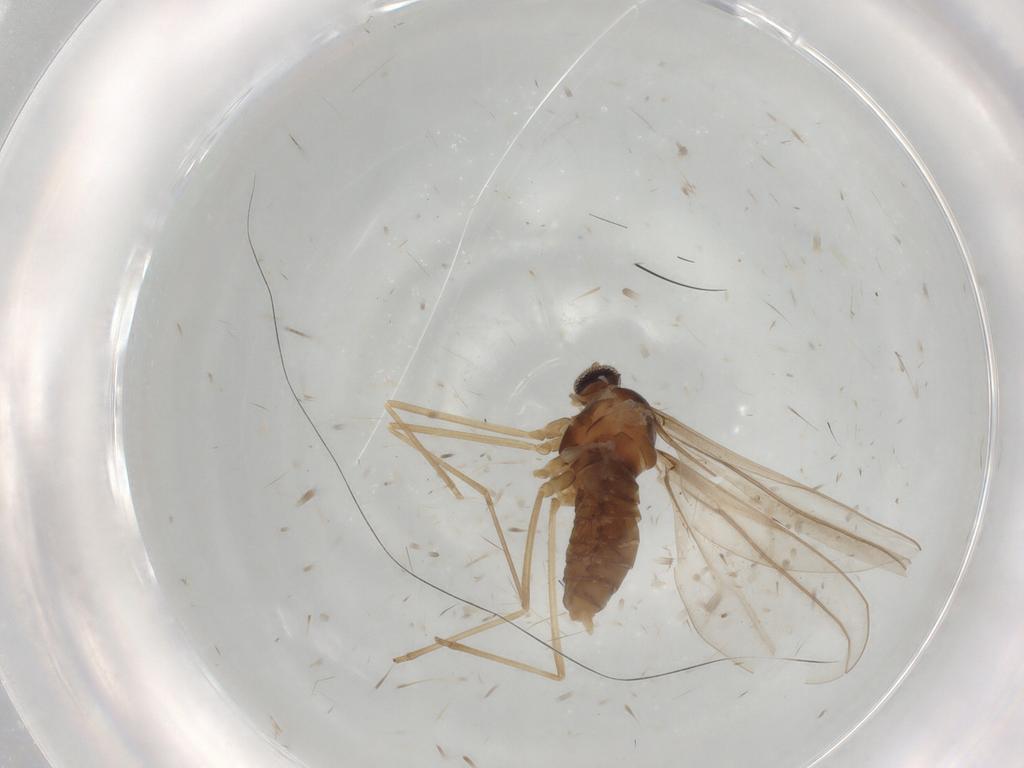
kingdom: Animalia
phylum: Arthropoda
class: Insecta
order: Diptera
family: Cecidomyiidae
